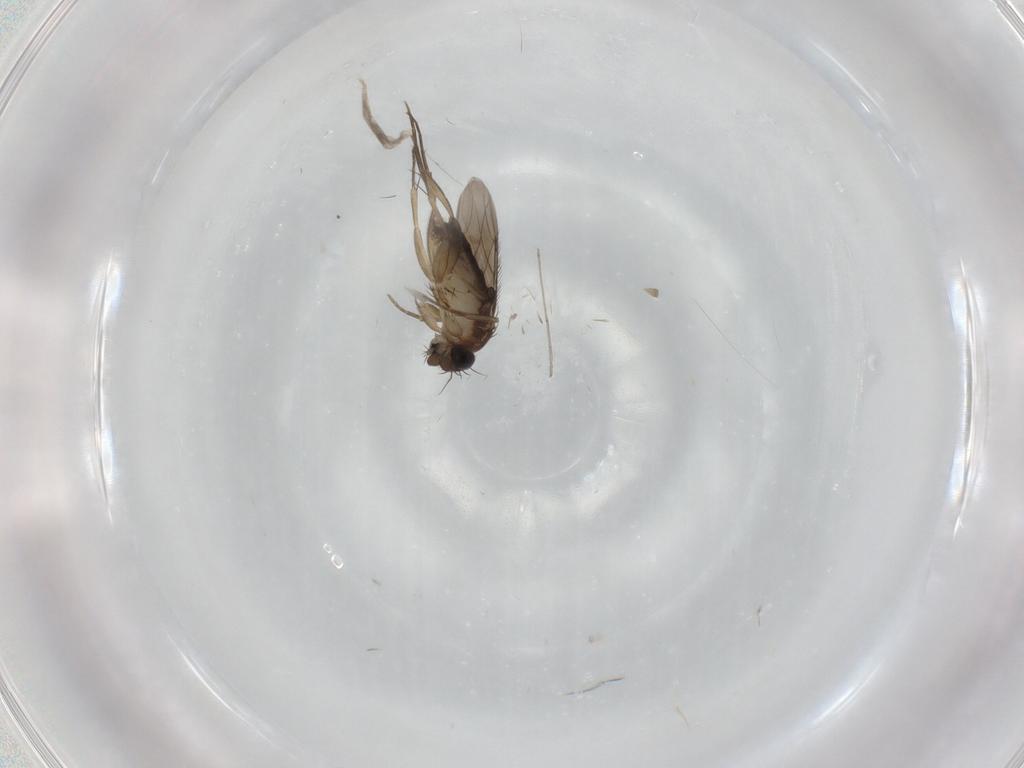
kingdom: Animalia
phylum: Arthropoda
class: Insecta
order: Diptera
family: Phoridae
